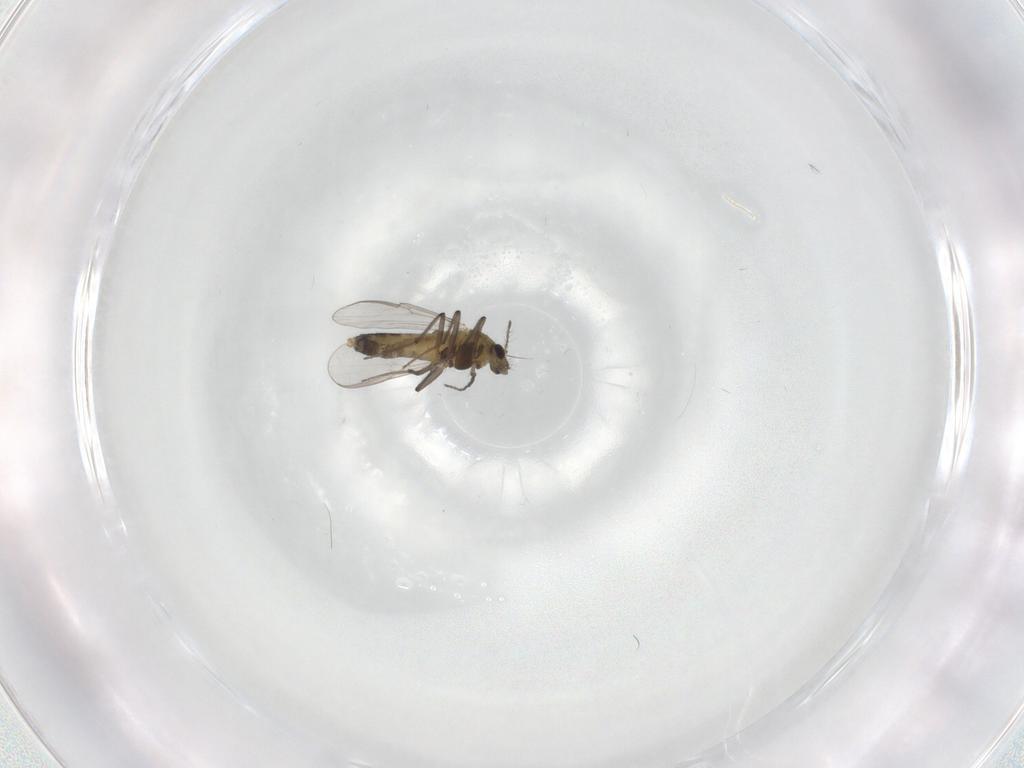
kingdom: Animalia
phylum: Arthropoda
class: Insecta
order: Diptera
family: Chironomidae
